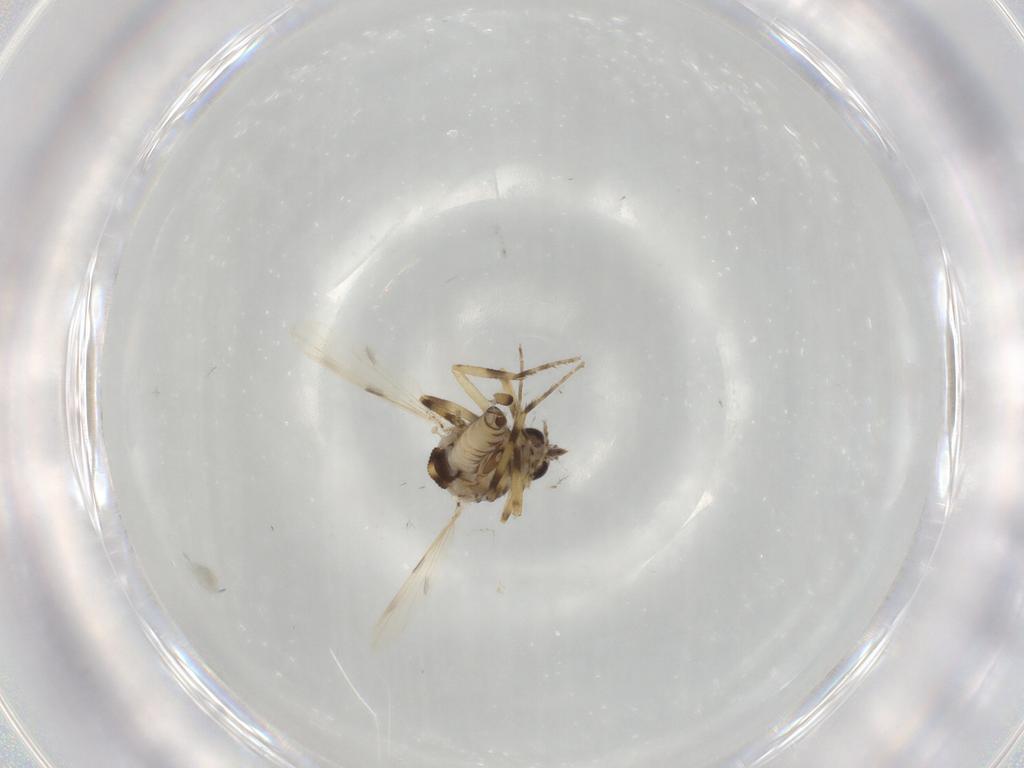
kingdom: Animalia
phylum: Arthropoda
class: Insecta
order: Diptera
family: Ceratopogonidae
